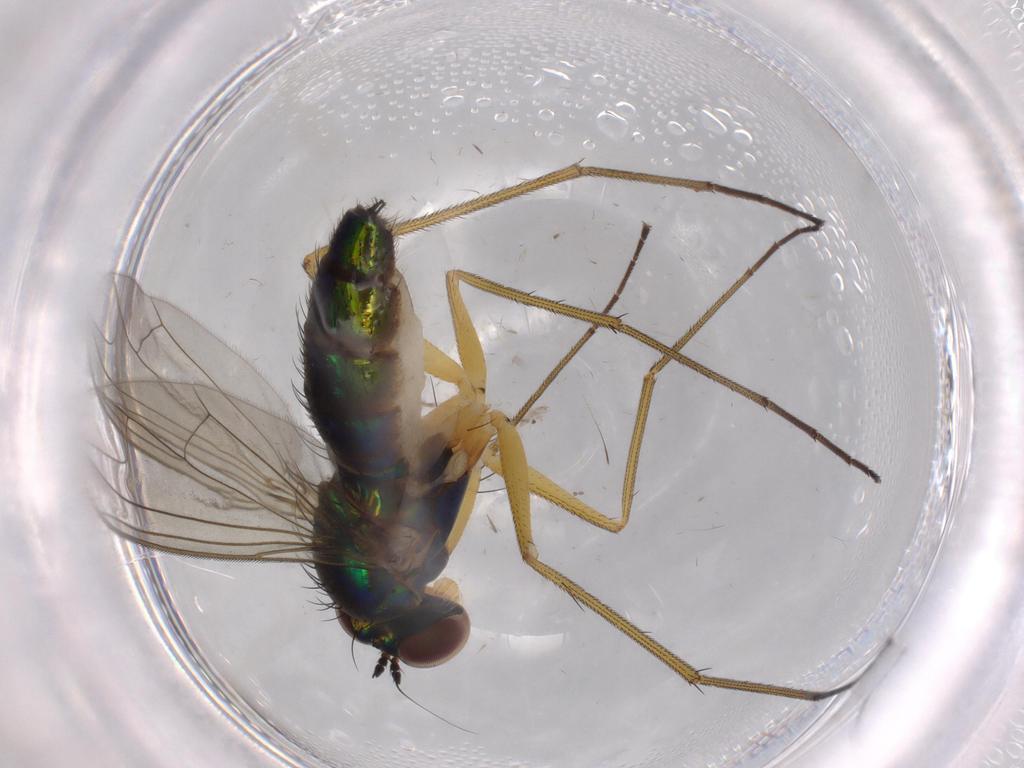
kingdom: Animalia
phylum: Arthropoda
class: Insecta
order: Diptera
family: Dolichopodidae
